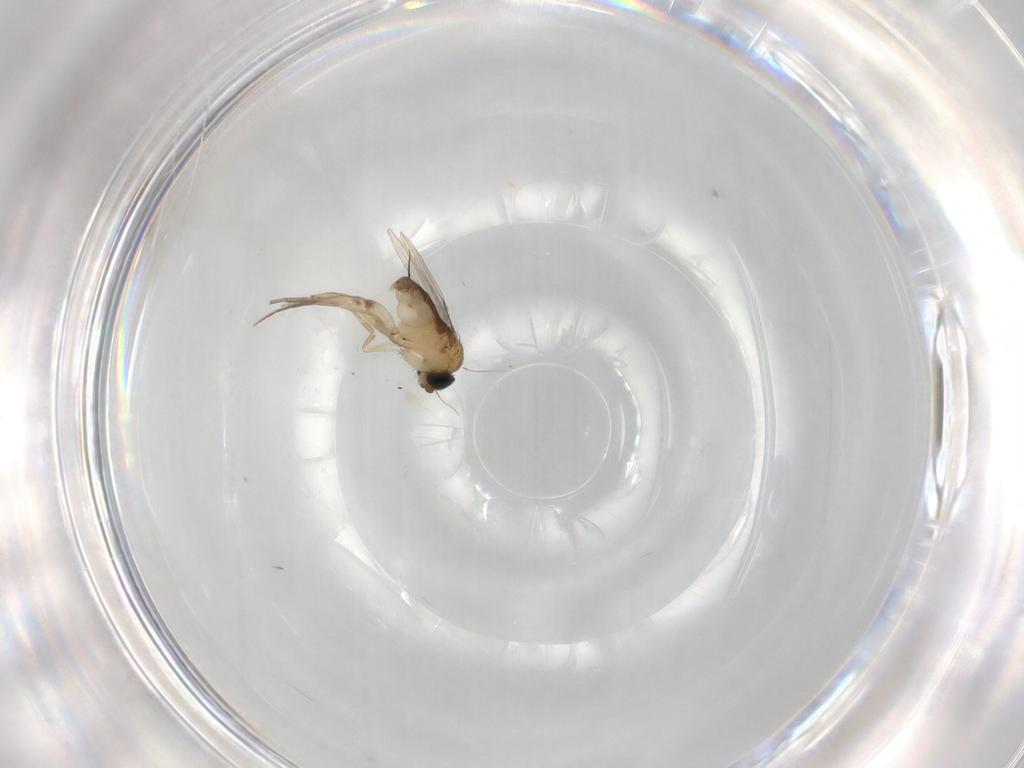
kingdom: Animalia
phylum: Arthropoda
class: Insecta
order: Diptera
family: Phoridae
